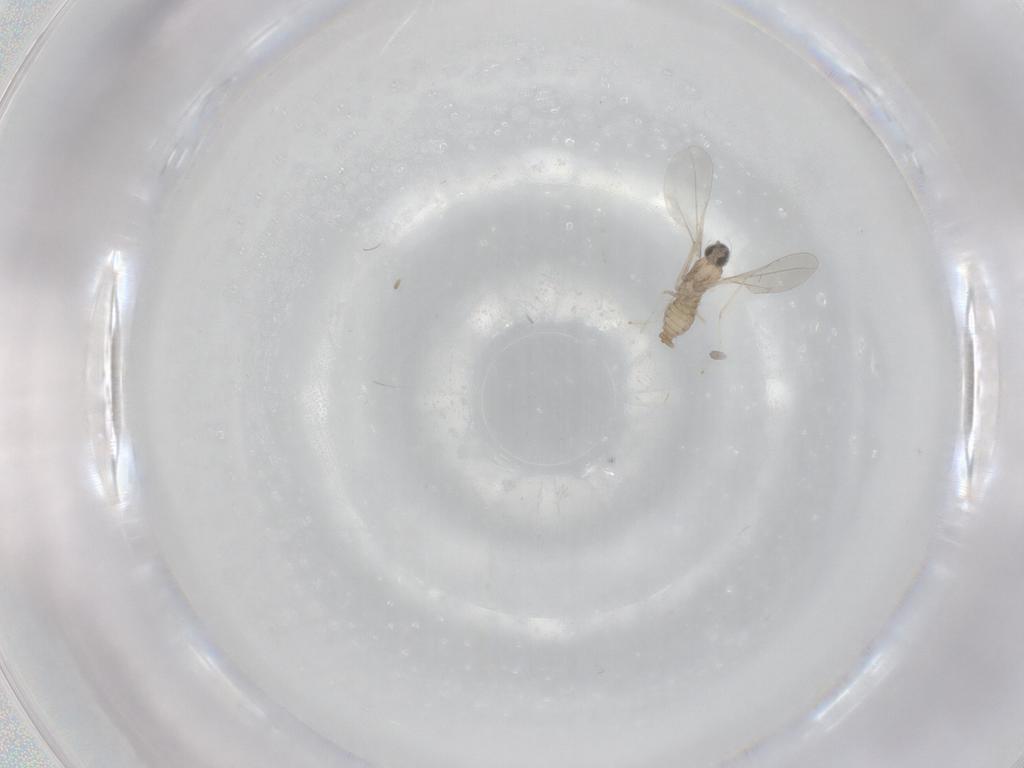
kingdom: Animalia
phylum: Arthropoda
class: Insecta
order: Diptera
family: Cecidomyiidae
